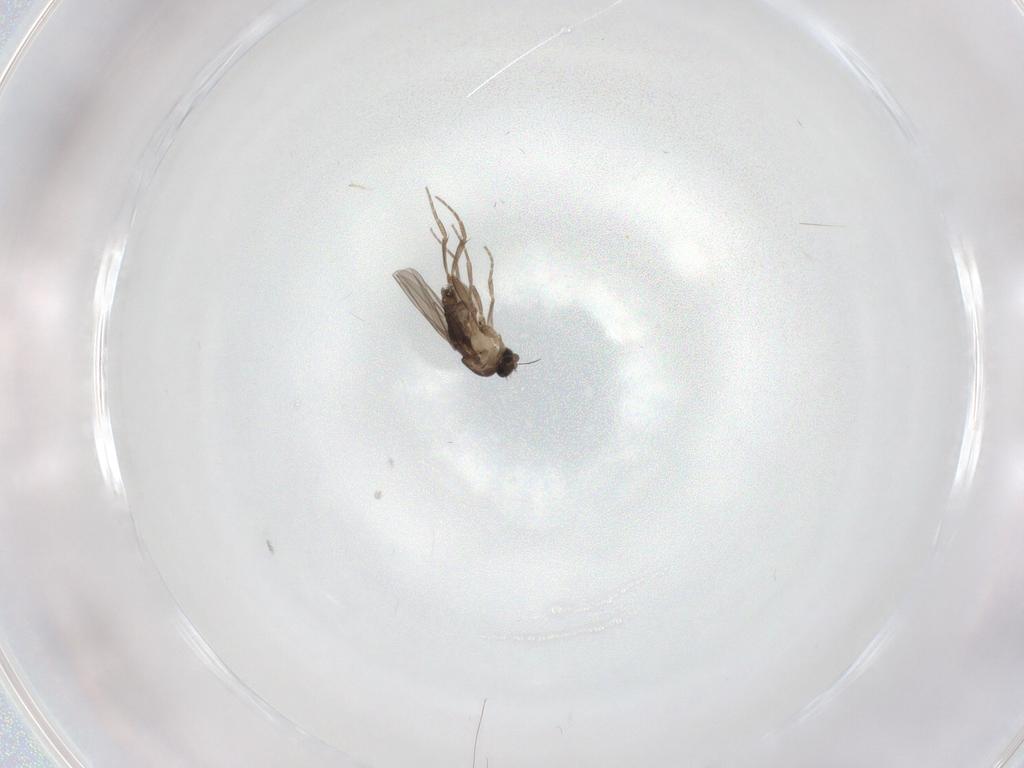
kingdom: Animalia
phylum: Arthropoda
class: Insecta
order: Diptera
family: Phoridae
